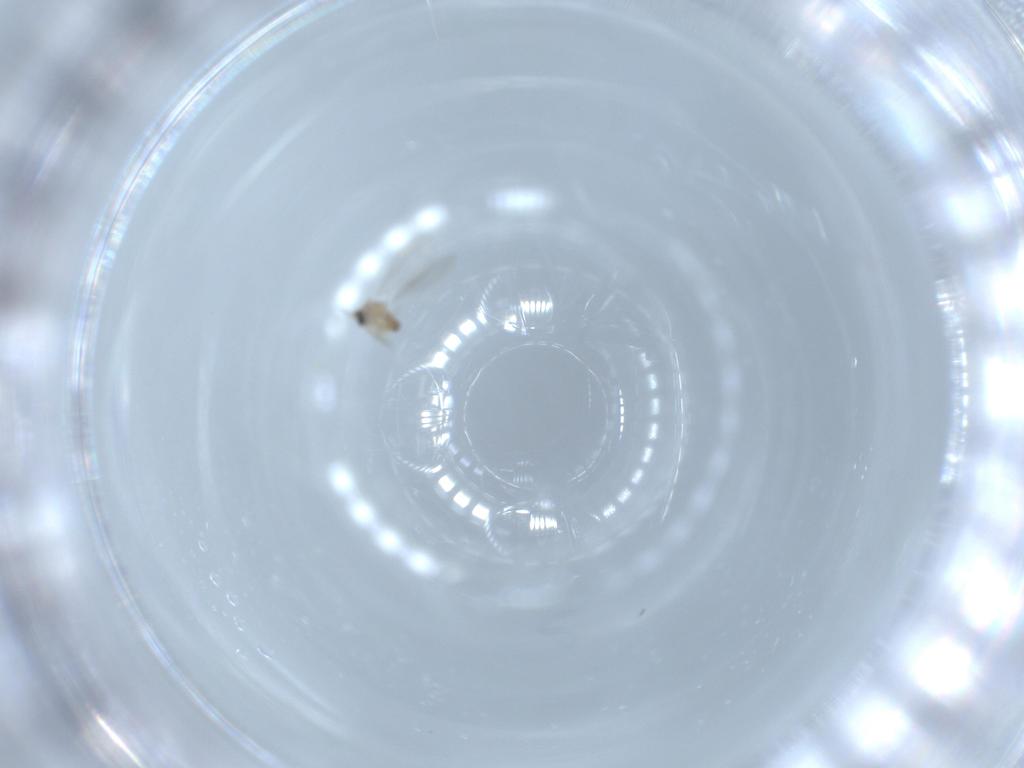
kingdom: Animalia
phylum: Arthropoda
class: Insecta
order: Diptera
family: Cecidomyiidae
